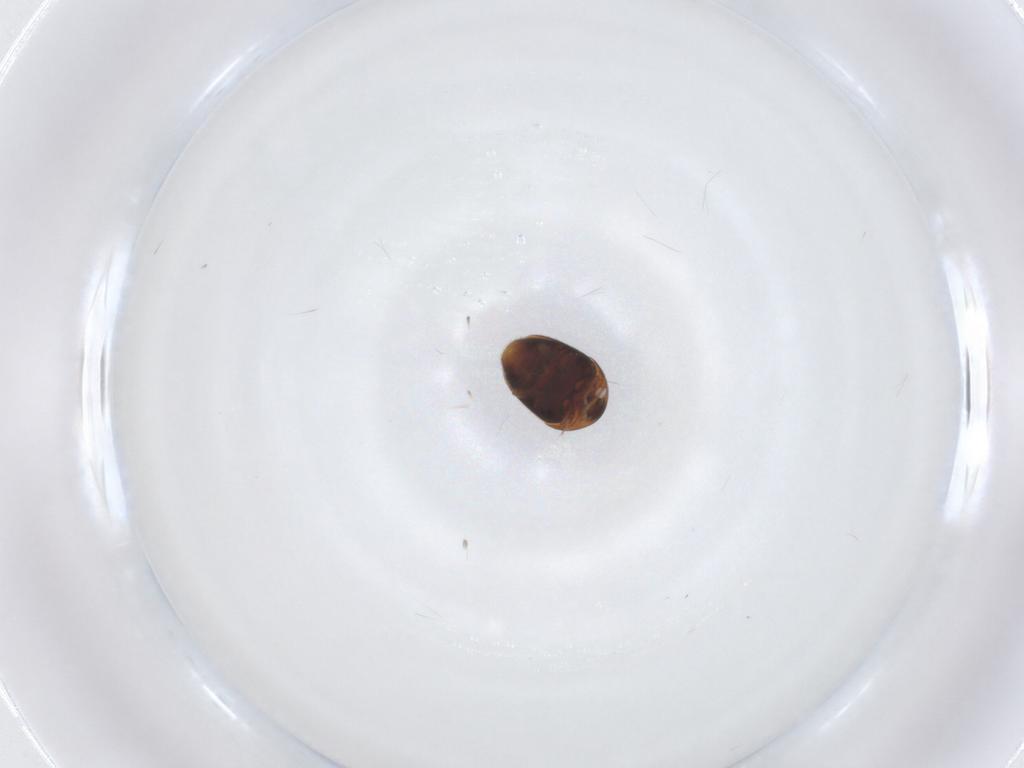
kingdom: Animalia
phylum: Arthropoda
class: Insecta
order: Coleoptera
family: Corylophidae
